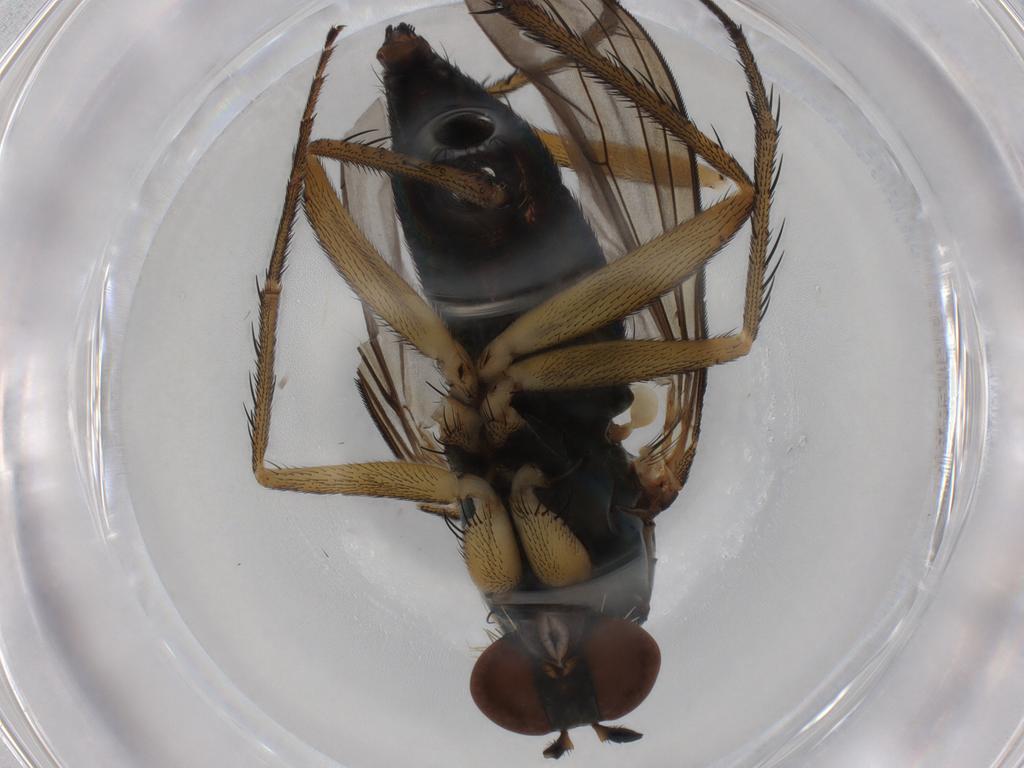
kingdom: Animalia
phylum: Arthropoda
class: Insecta
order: Diptera
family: Dolichopodidae
